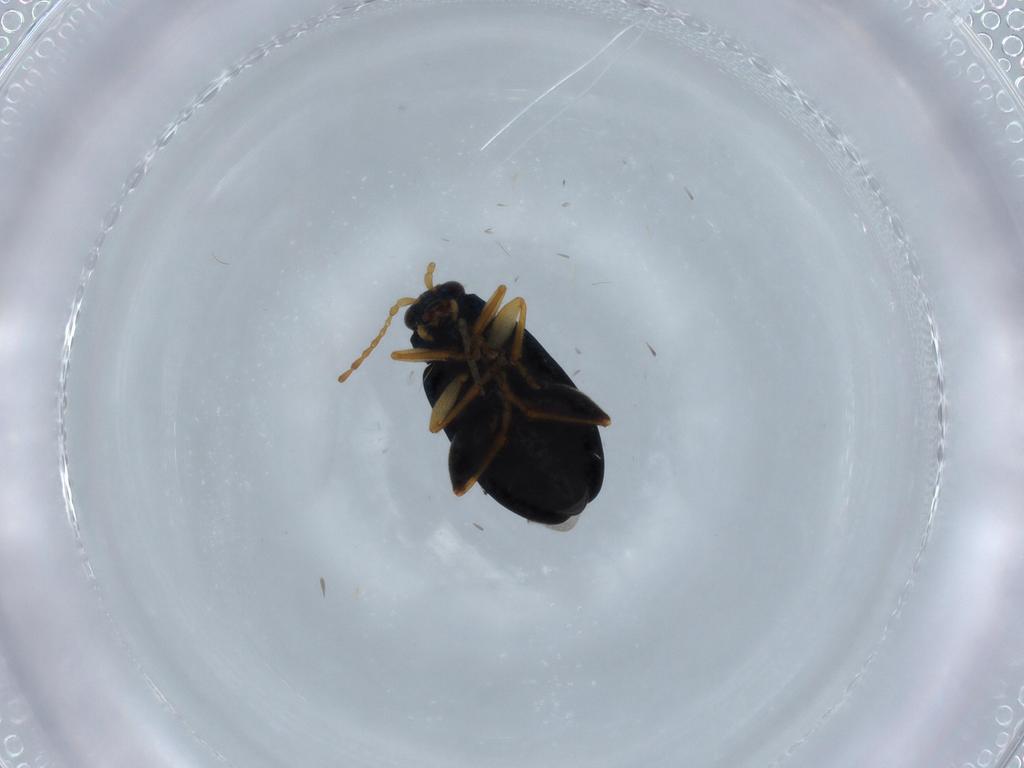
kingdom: Animalia
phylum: Arthropoda
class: Insecta
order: Coleoptera
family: Chrysomelidae
